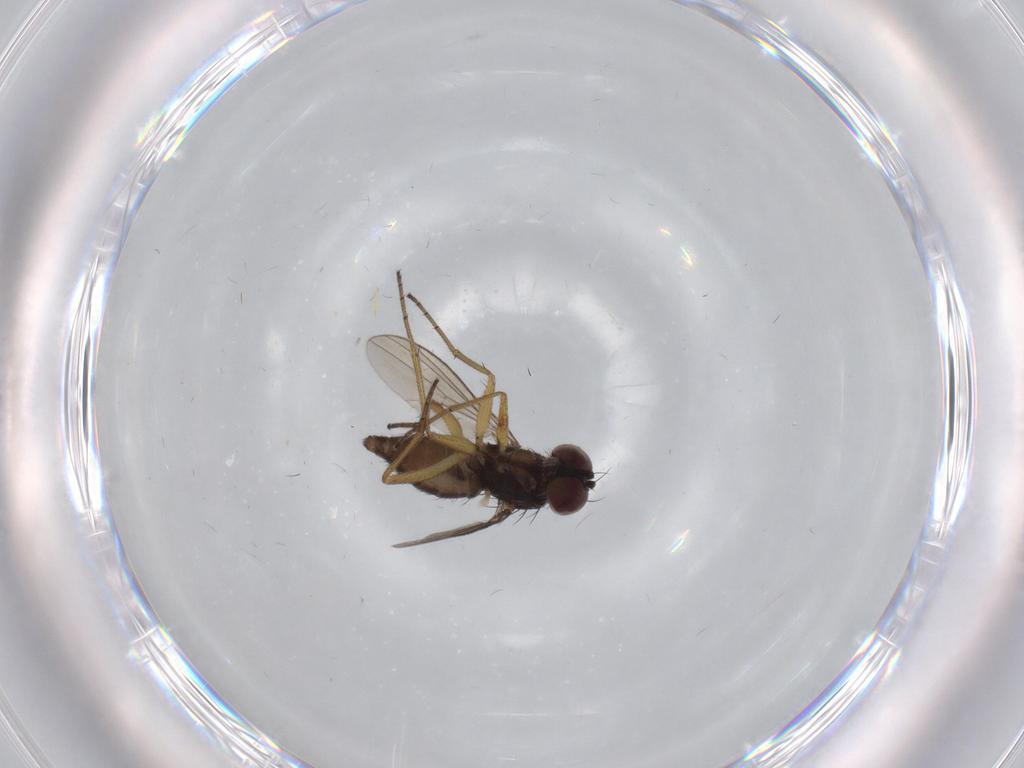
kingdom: Animalia
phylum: Arthropoda
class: Insecta
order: Diptera
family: Dolichopodidae
